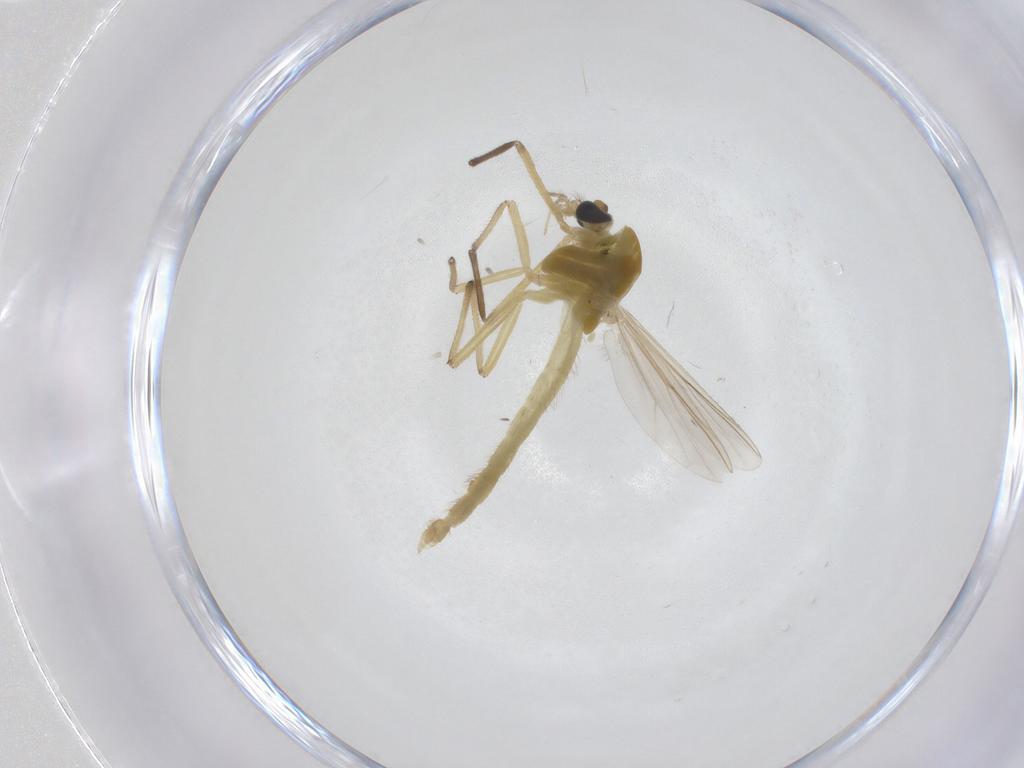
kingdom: Animalia
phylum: Arthropoda
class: Insecta
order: Diptera
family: Chironomidae
